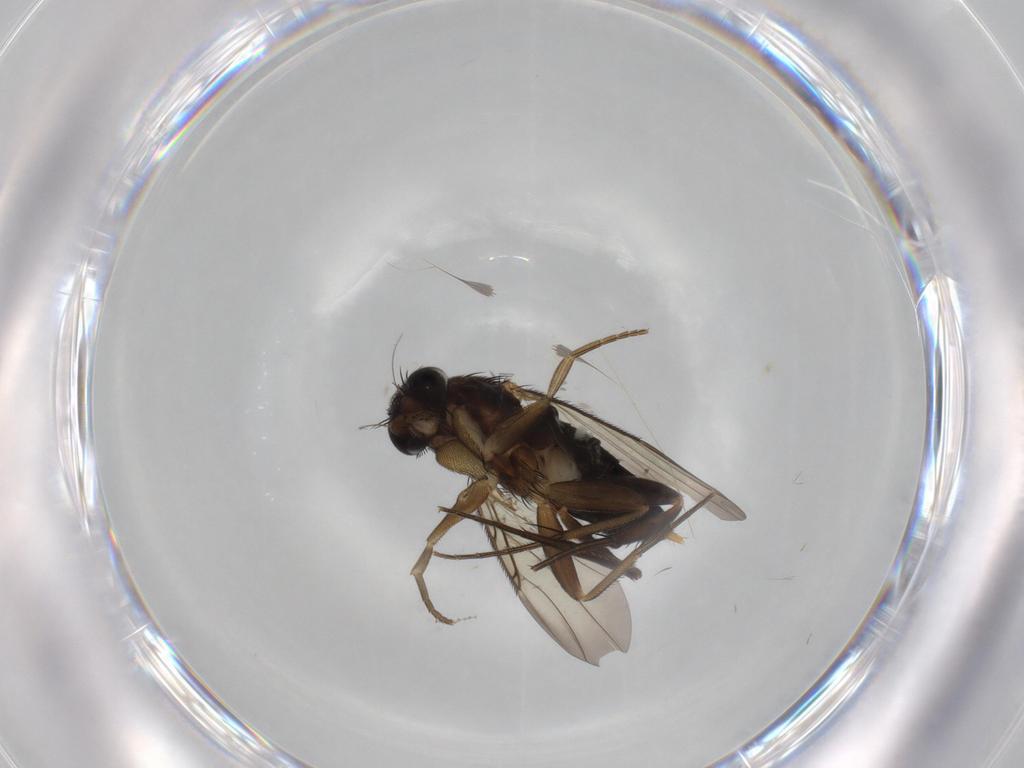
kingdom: Animalia
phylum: Arthropoda
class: Insecta
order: Diptera
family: Phoridae
